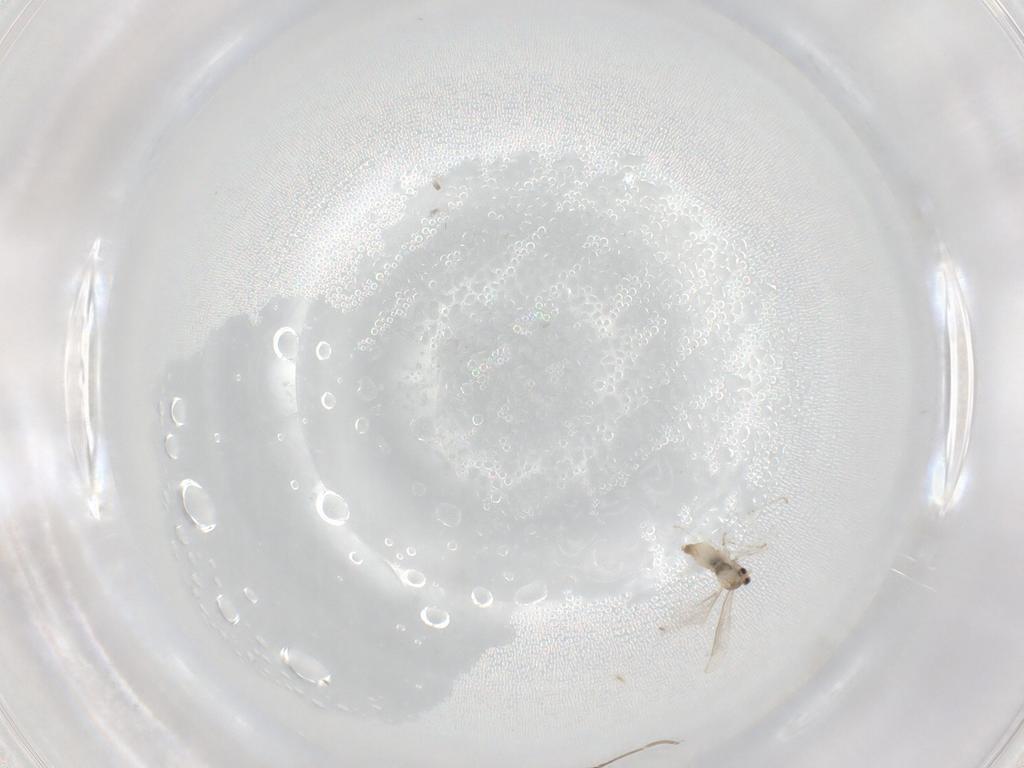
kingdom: Animalia
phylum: Arthropoda
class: Insecta
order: Diptera
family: Cecidomyiidae
